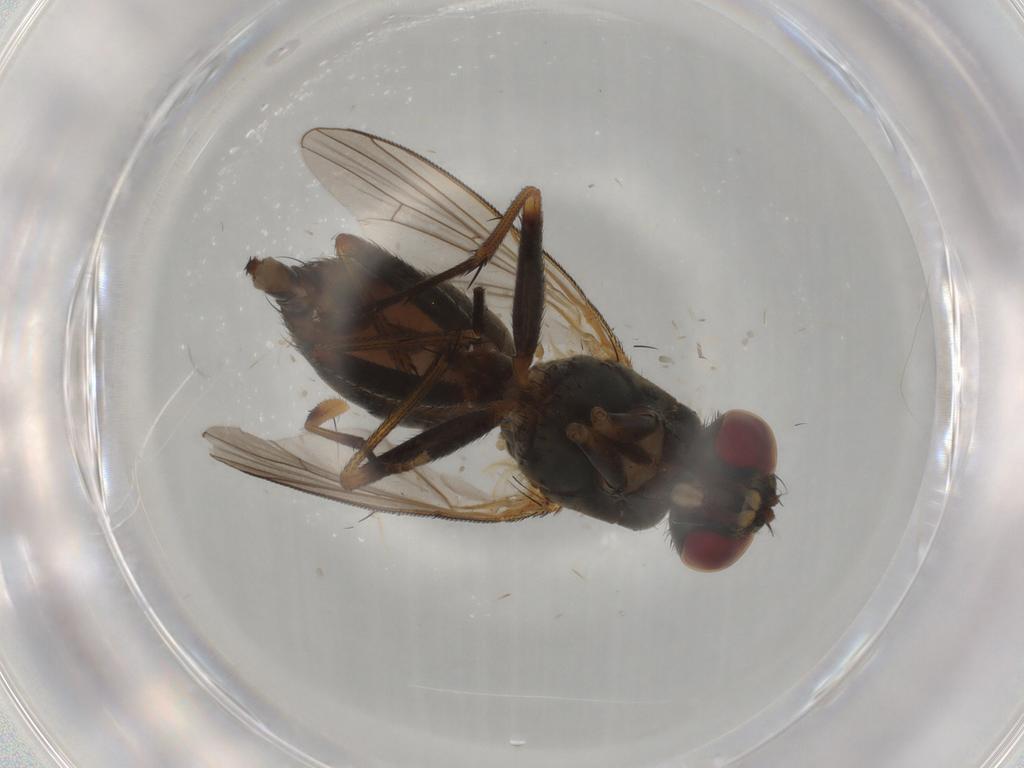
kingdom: Animalia
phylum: Arthropoda
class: Insecta
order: Diptera
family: Muscidae
